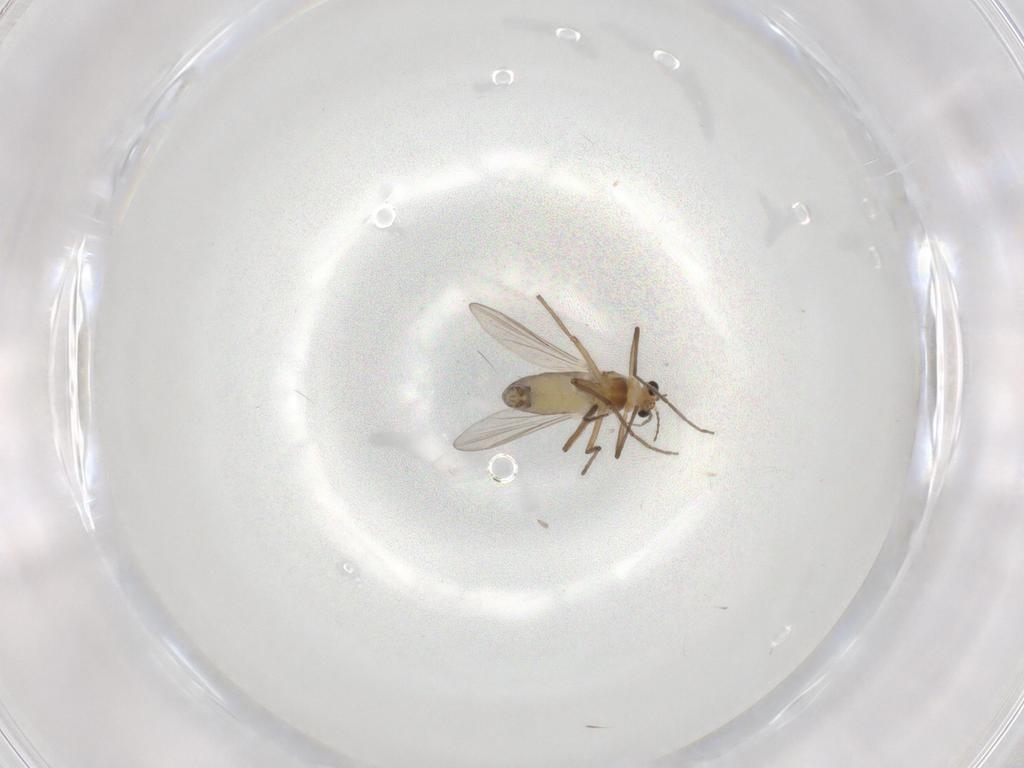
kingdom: Animalia
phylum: Arthropoda
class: Insecta
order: Diptera
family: Chironomidae
